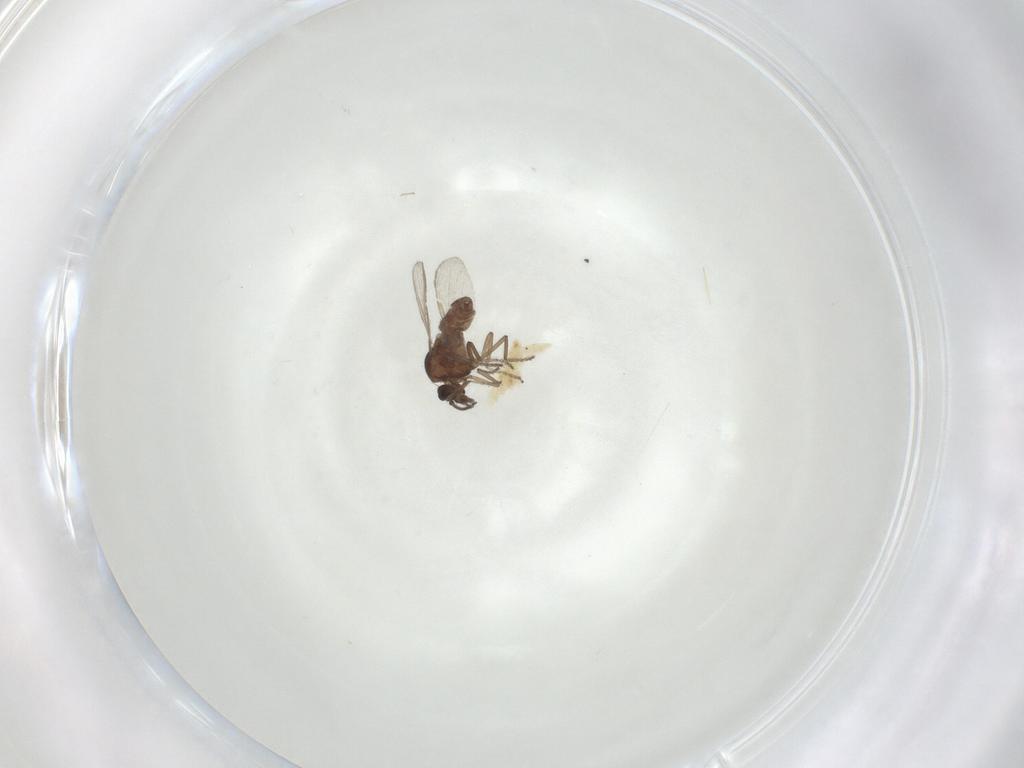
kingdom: Animalia
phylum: Arthropoda
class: Insecta
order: Diptera
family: Ceratopogonidae
